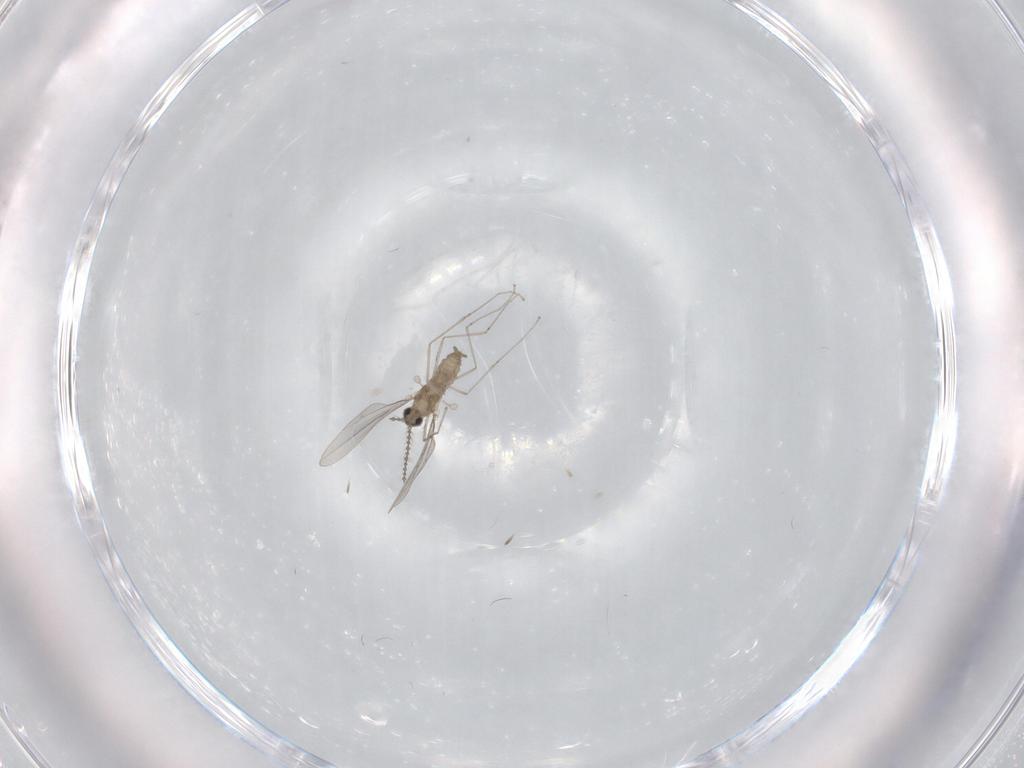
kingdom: Animalia
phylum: Arthropoda
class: Insecta
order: Diptera
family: Cecidomyiidae
